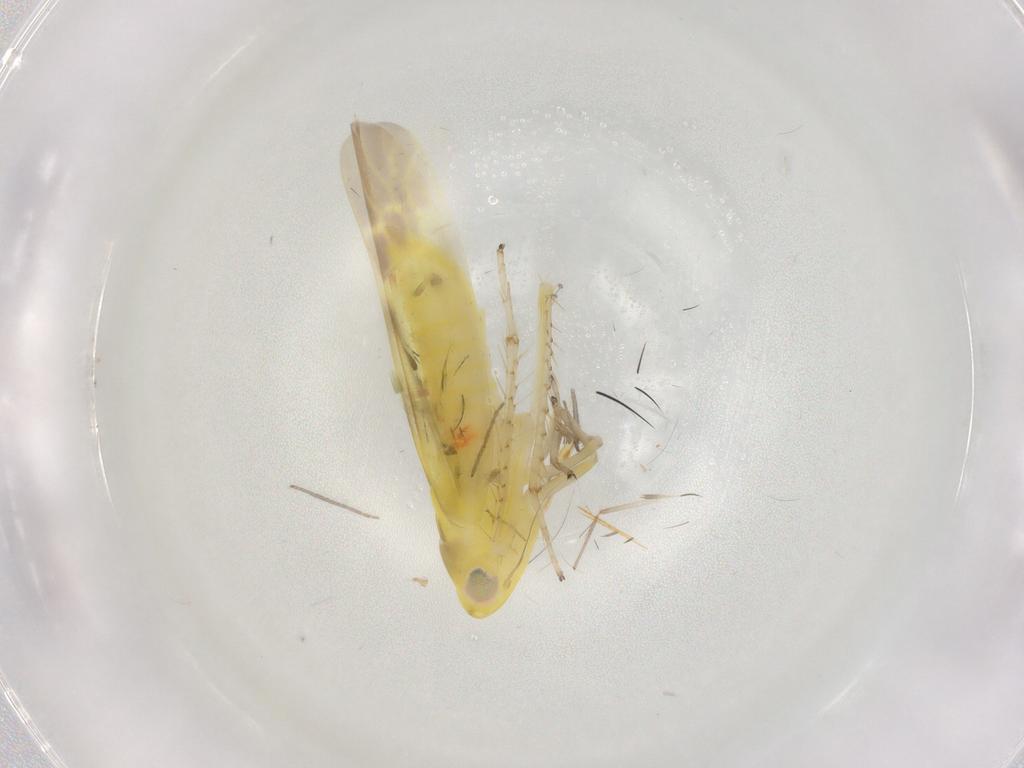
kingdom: Animalia
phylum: Arthropoda
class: Insecta
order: Hemiptera
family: Cicadellidae
